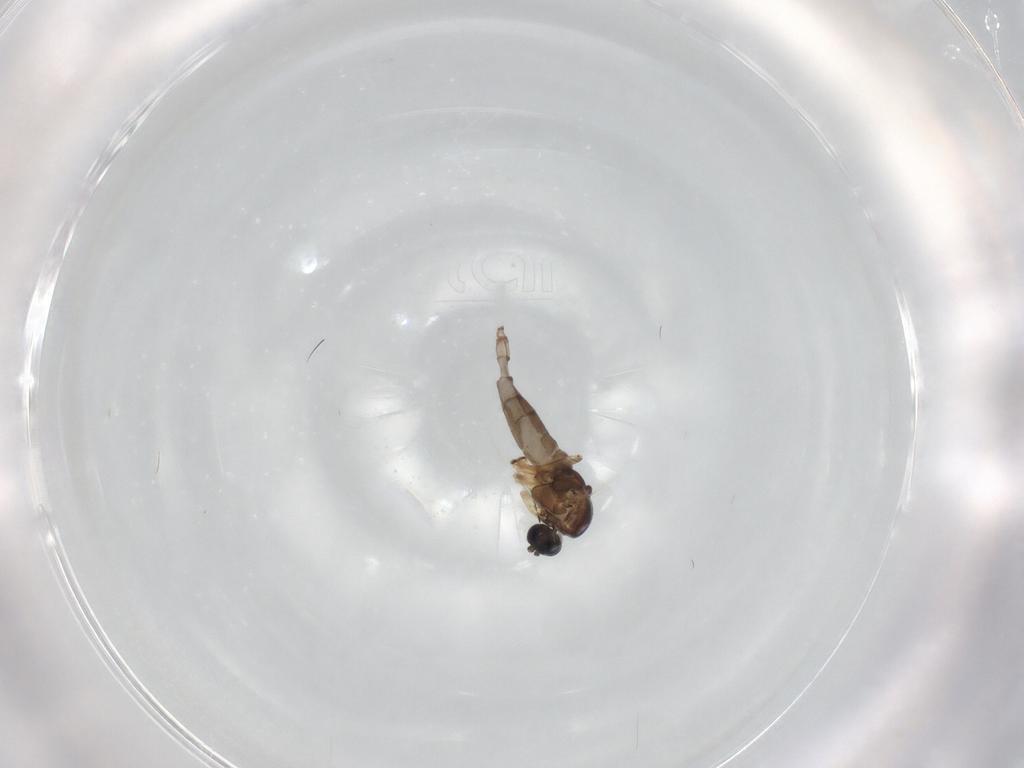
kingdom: Animalia
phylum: Arthropoda
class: Insecta
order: Diptera
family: Sciaridae
